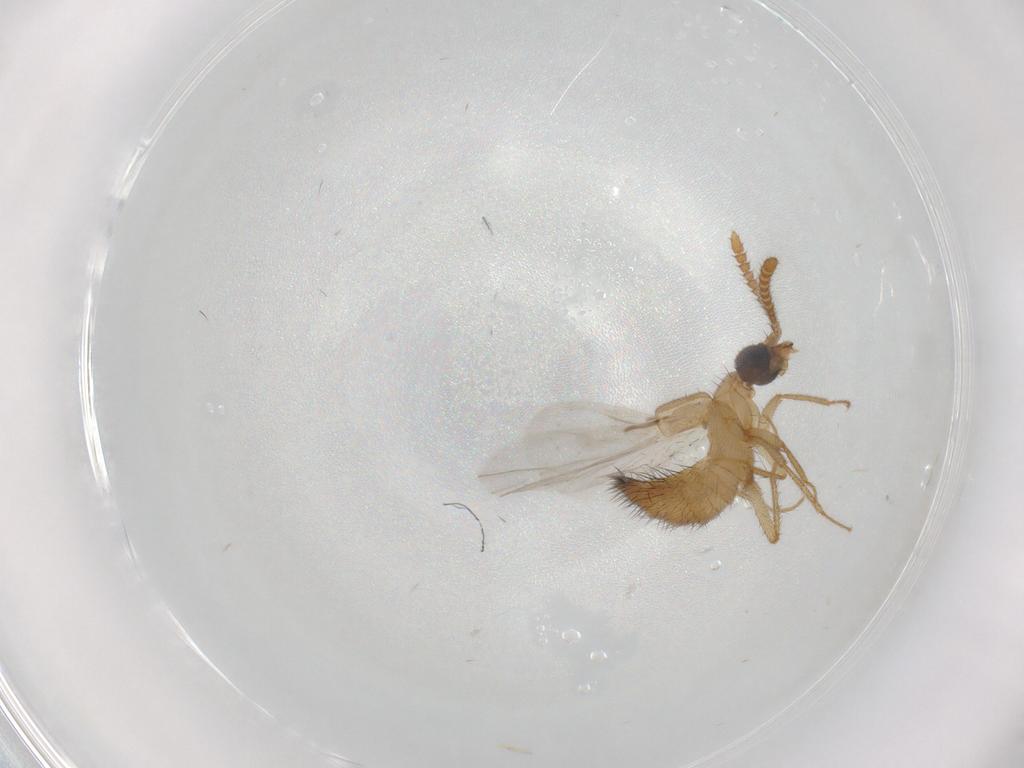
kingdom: Animalia
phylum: Arthropoda
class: Insecta
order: Coleoptera
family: Staphylinidae
